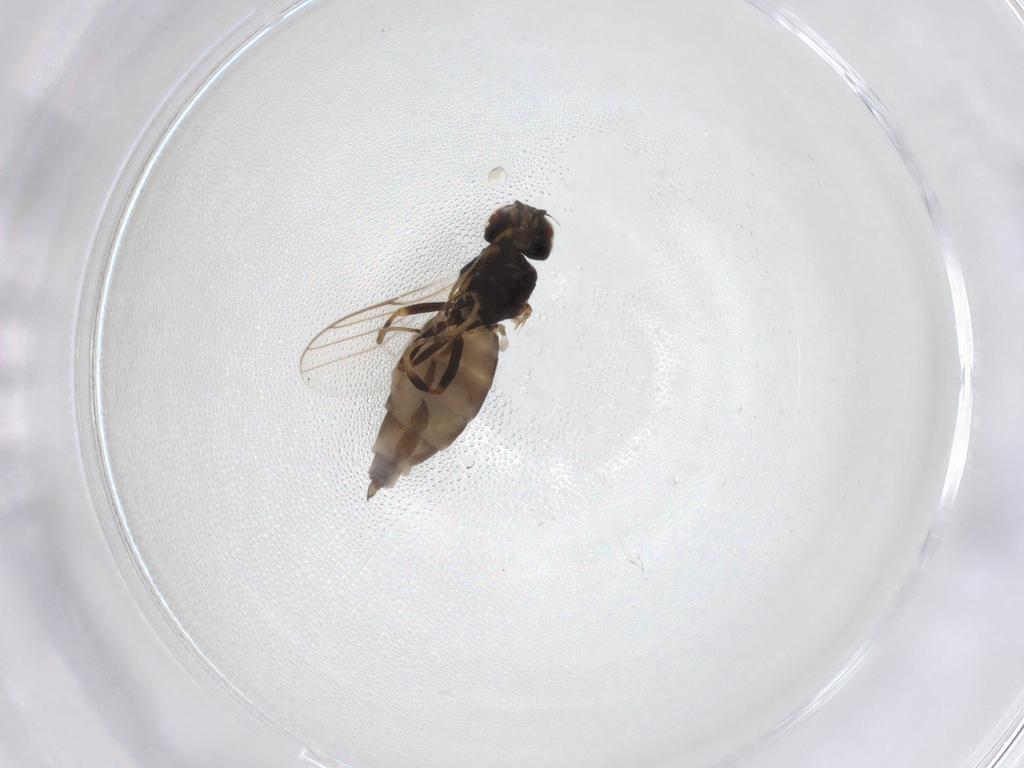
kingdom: Animalia
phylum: Arthropoda
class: Insecta
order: Diptera
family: Chloropidae
